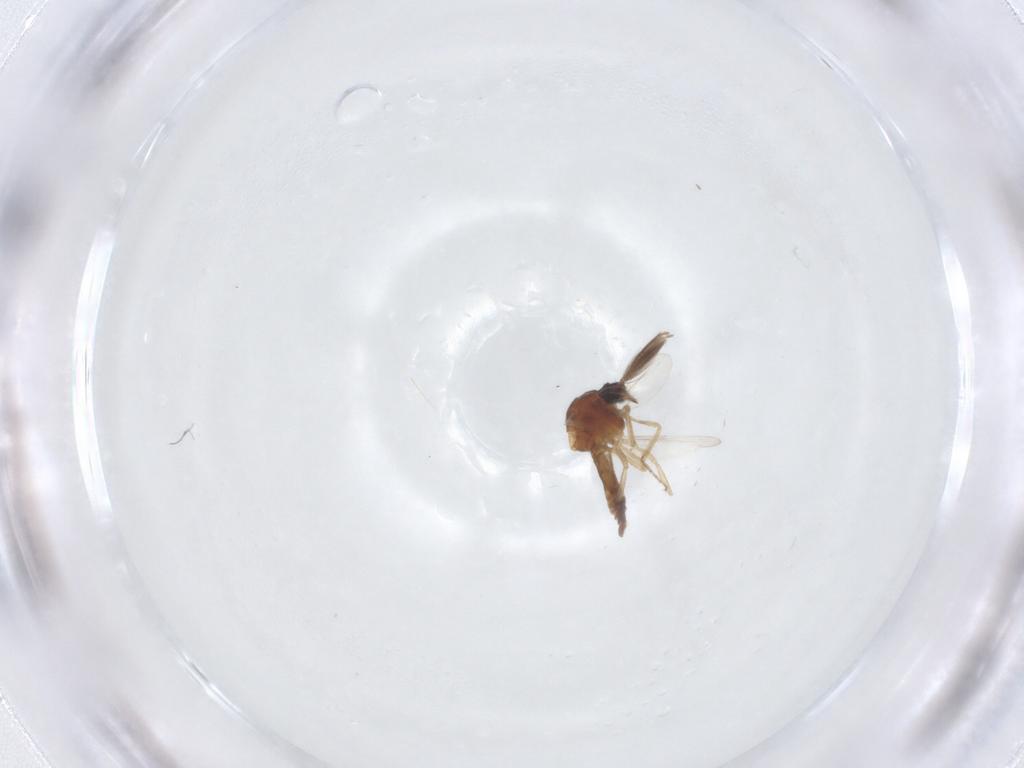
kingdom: Animalia
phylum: Arthropoda
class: Insecta
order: Diptera
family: Ceratopogonidae
